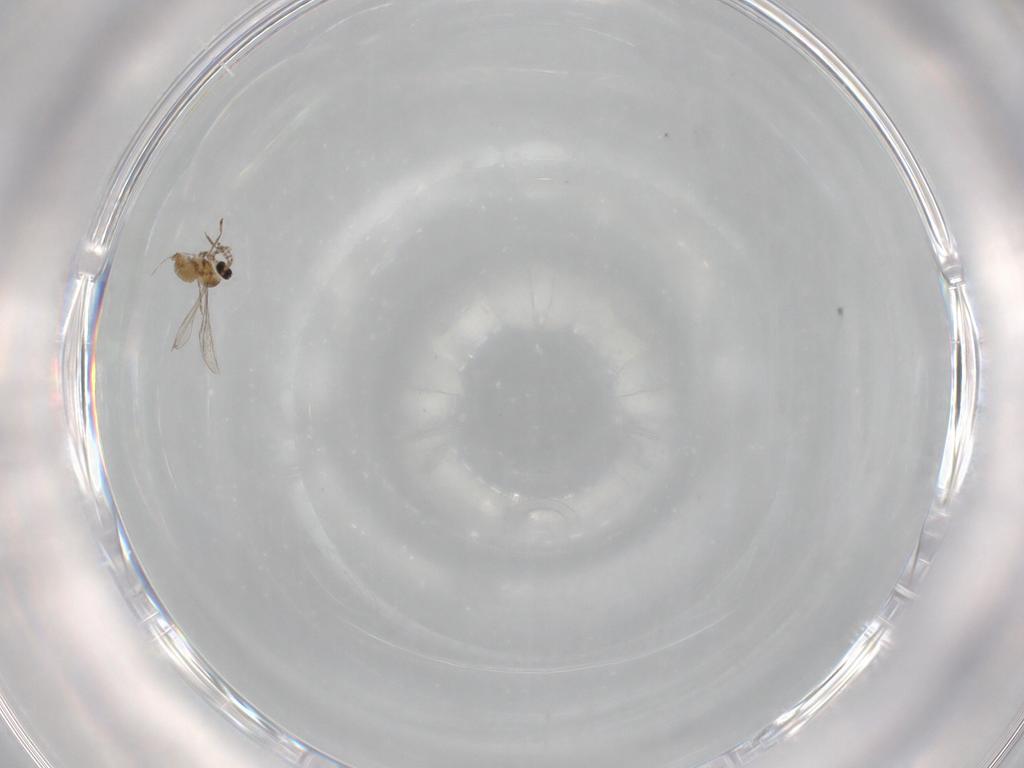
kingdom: Animalia
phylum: Arthropoda
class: Insecta
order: Diptera
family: Cecidomyiidae
